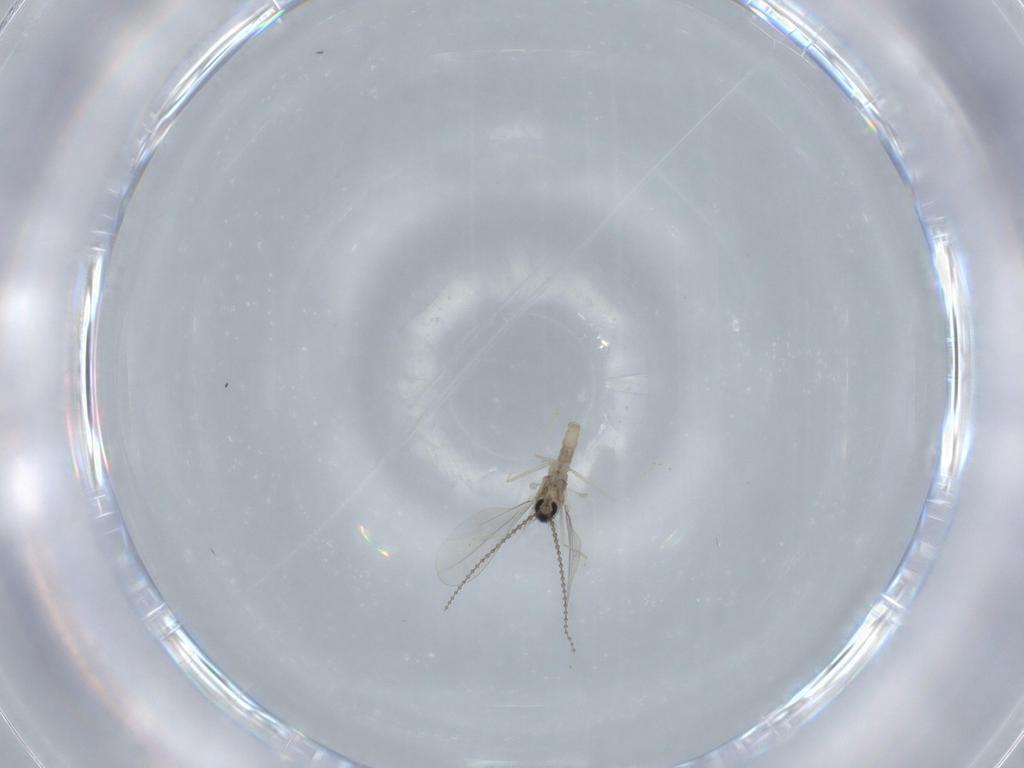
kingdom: Animalia
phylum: Arthropoda
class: Insecta
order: Diptera
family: Cecidomyiidae
